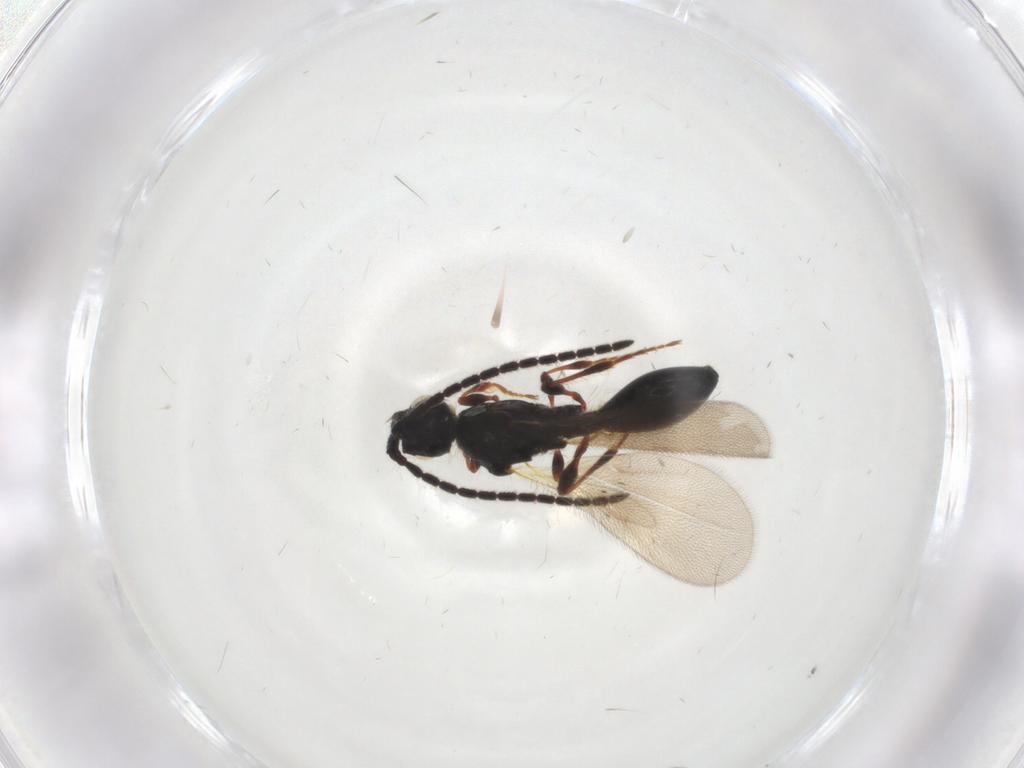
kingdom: Animalia
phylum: Arthropoda
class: Insecta
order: Hymenoptera
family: Diapriidae
